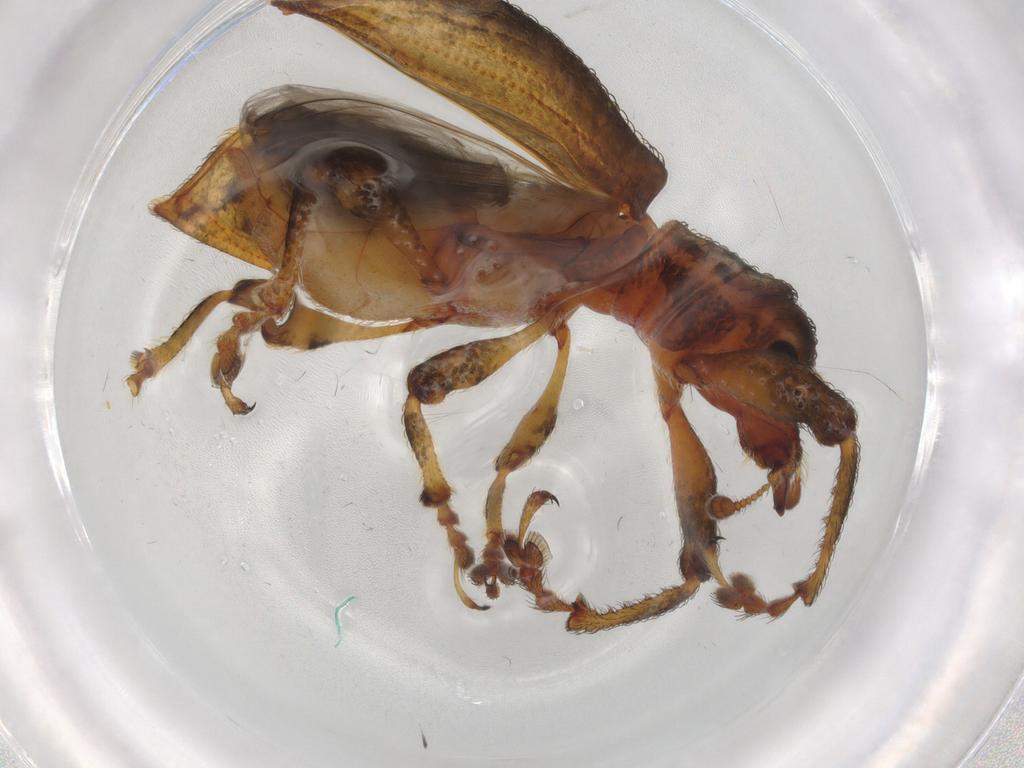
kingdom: Animalia
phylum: Arthropoda
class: Insecta
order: Coleoptera
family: Curculionidae
